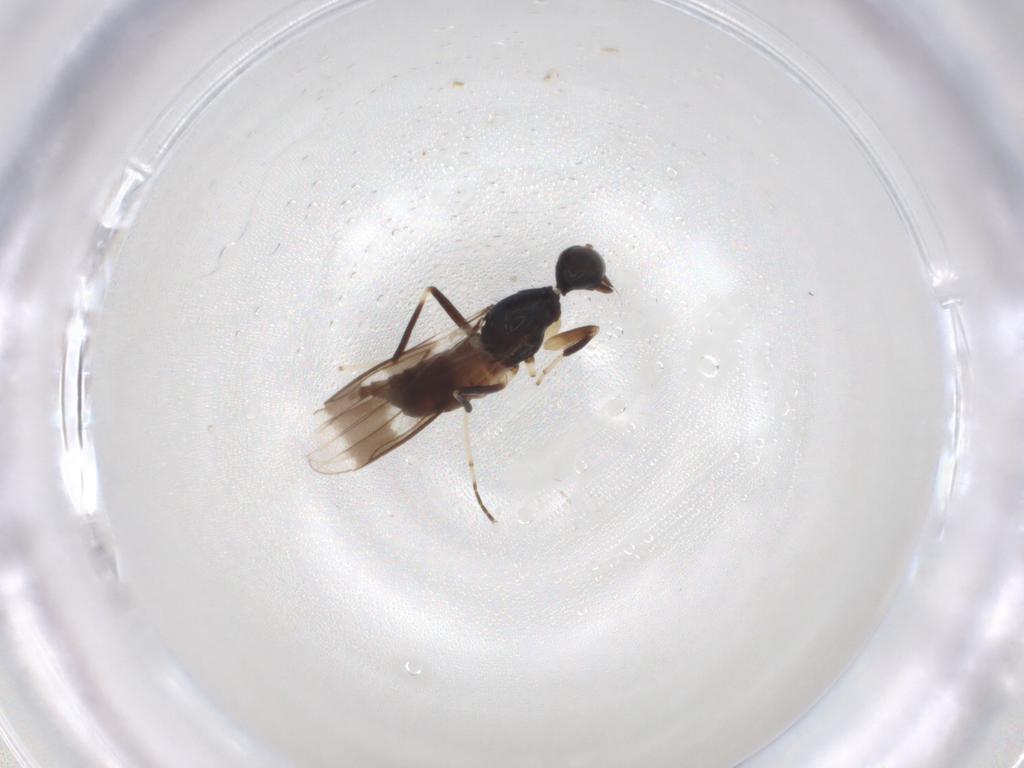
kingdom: Animalia
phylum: Arthropoda
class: Insecta
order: Diptera
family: Hybotidae
